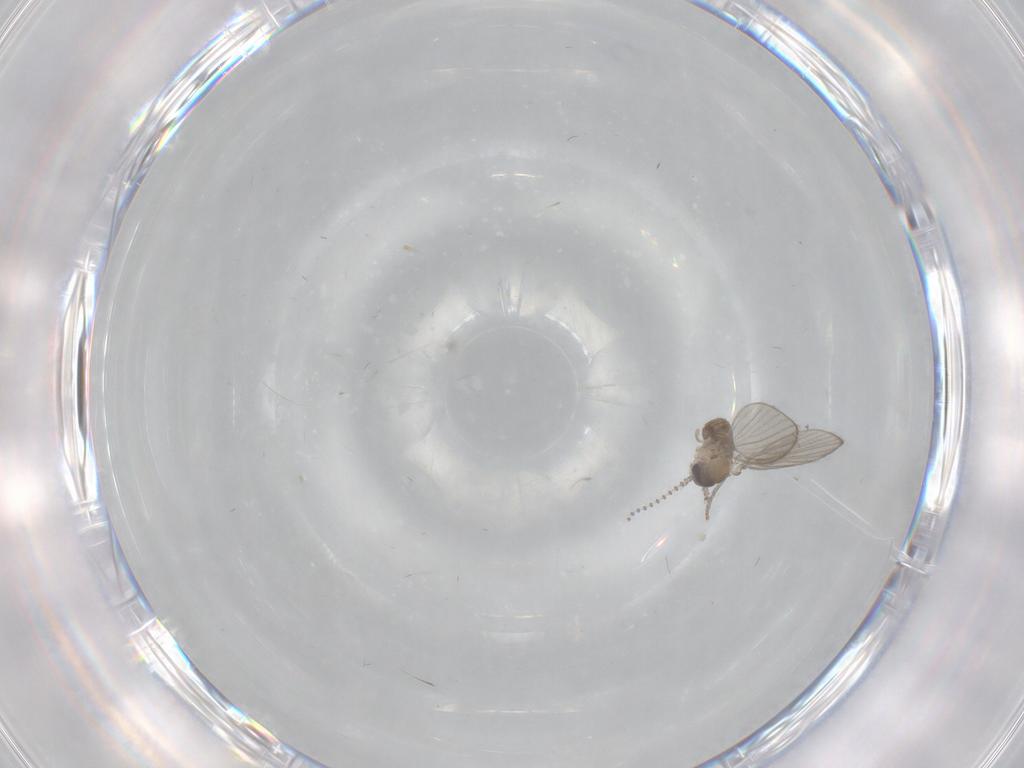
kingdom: Animalia
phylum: Arthropoda
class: Insecta
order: Diptera
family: Psychodidae
